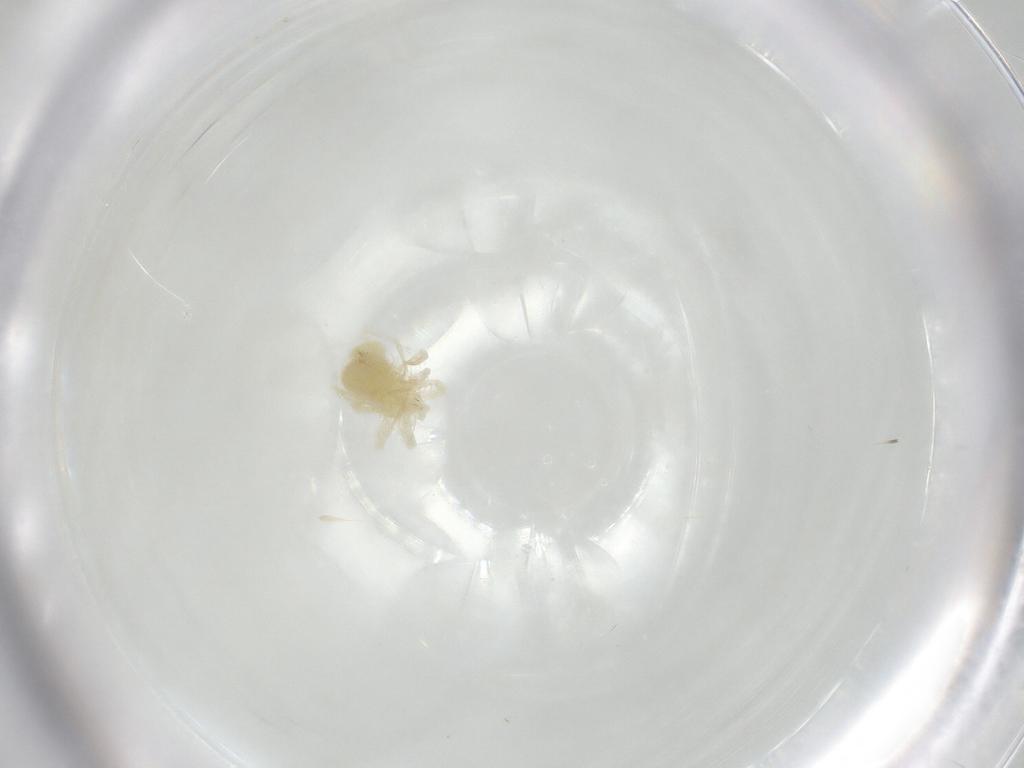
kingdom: Animalia
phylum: Arthropoda
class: Arachnida
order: Trombidiformes
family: Anystidae
